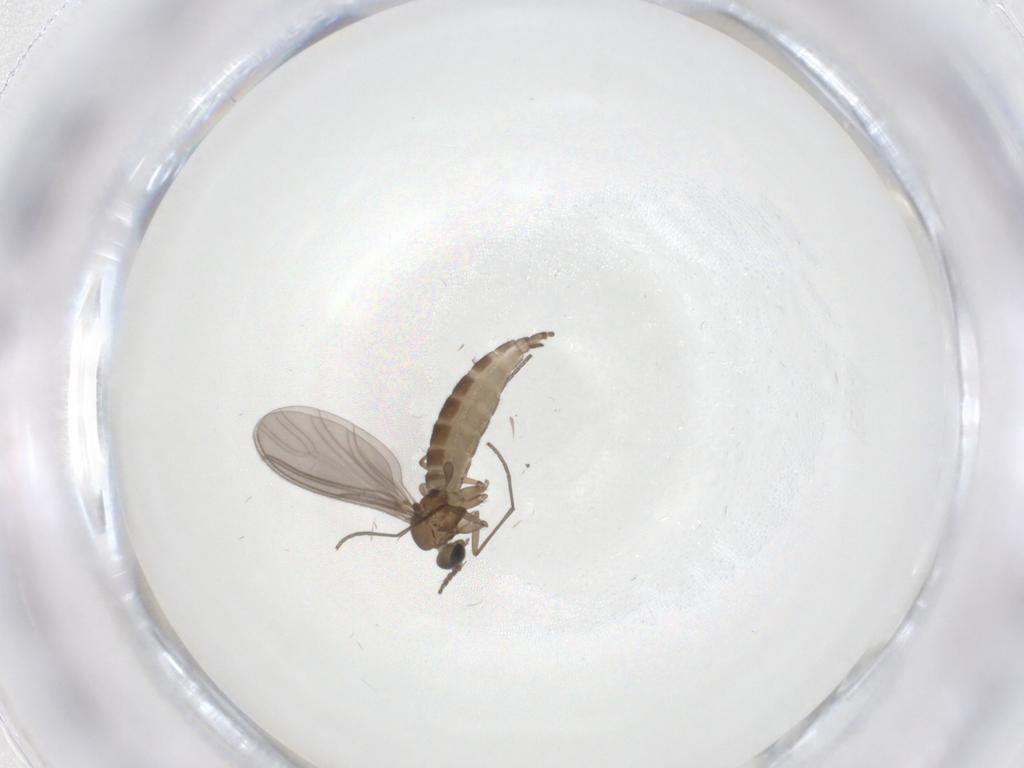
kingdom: Animalia
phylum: Arthropoda
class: Insecta
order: Diptera
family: Sciaridae
